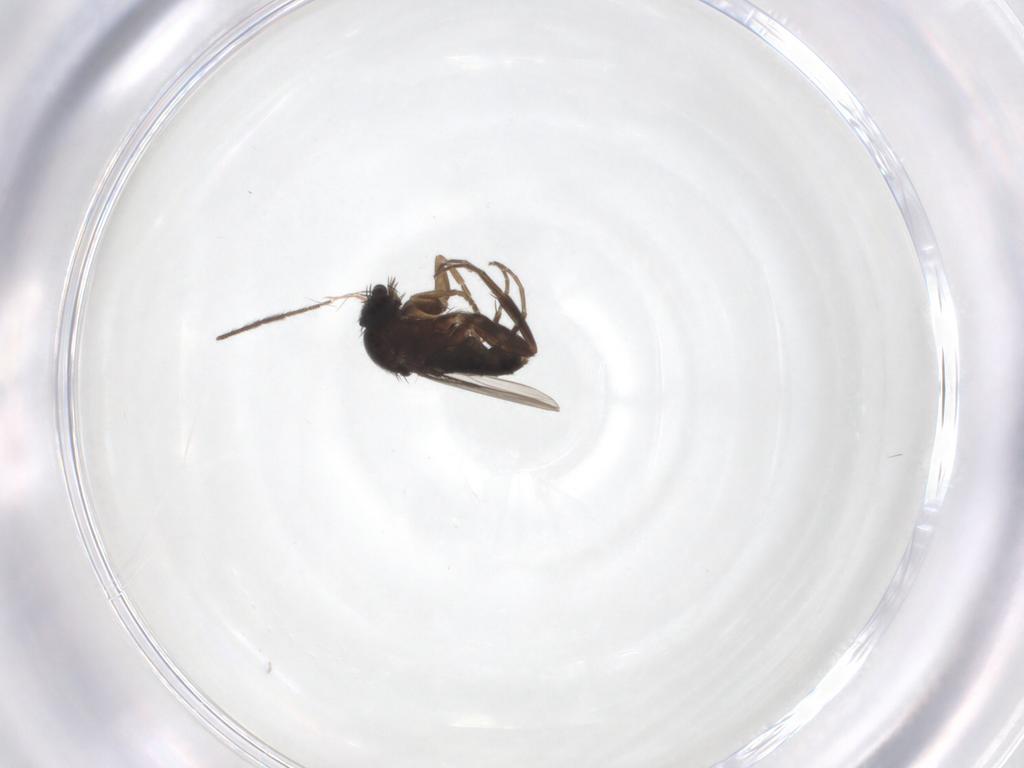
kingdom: Animalia
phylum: Arthropoda
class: Insecta
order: Diptera
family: Phoridae
